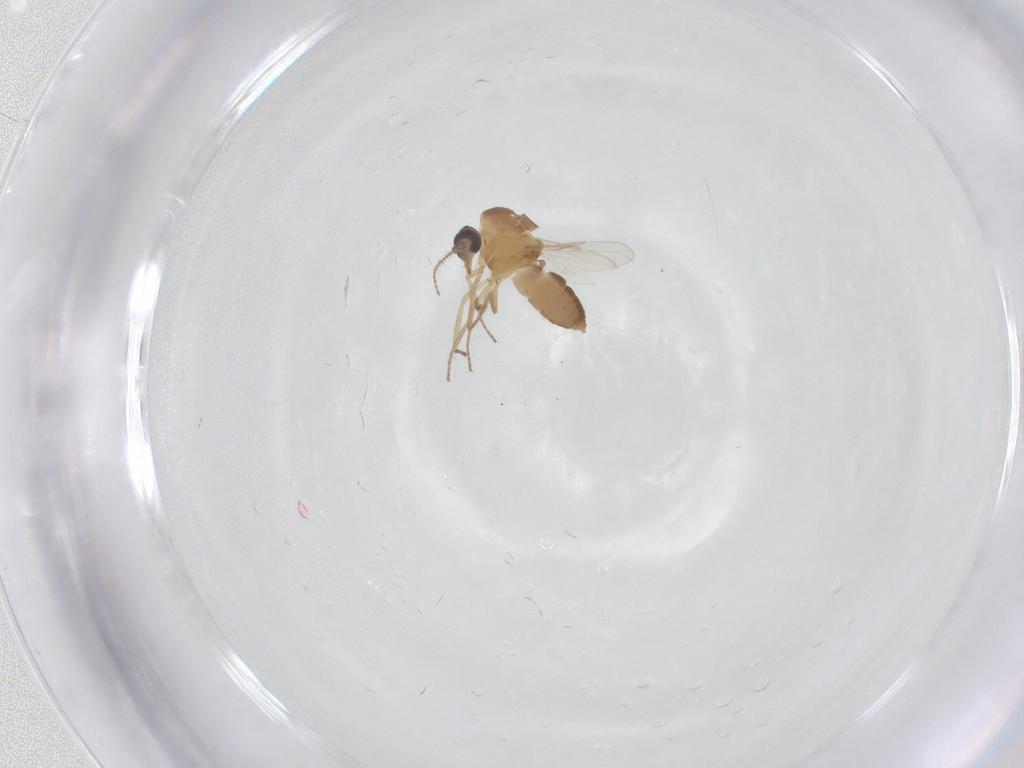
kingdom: Animalia
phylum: Arthropoda
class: Insecta
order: Diptera
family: Ceratopogonidae
